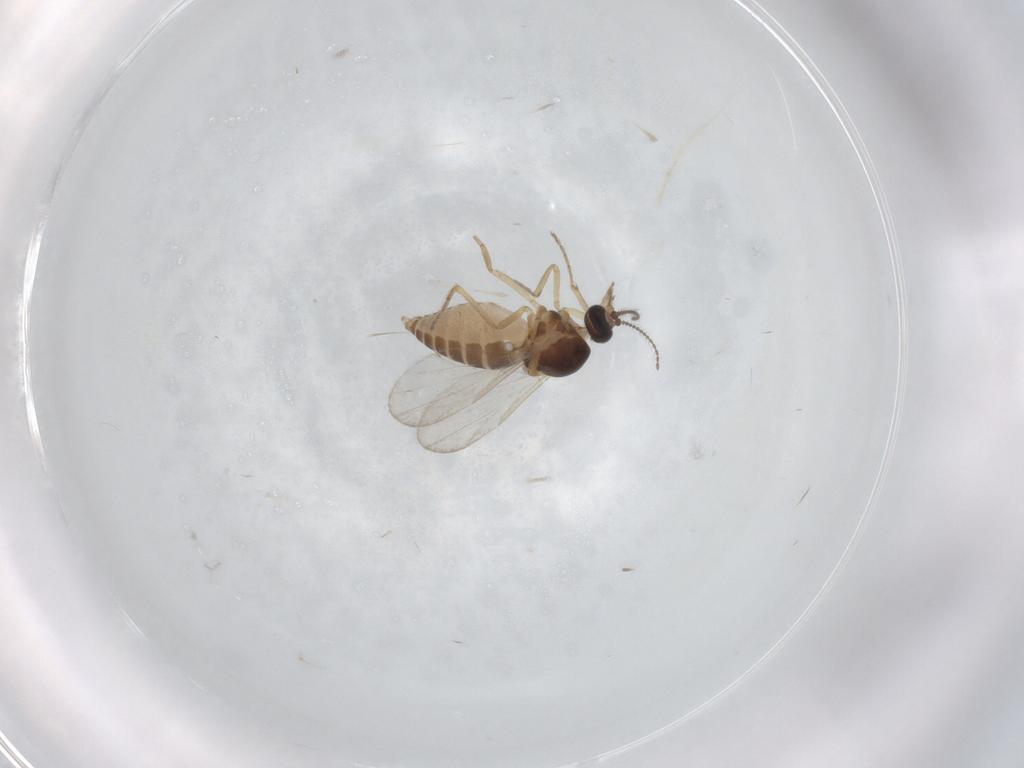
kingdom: Animalia
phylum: Arthropoda
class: Insecta
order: Diptera
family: Ceratopogonidae
